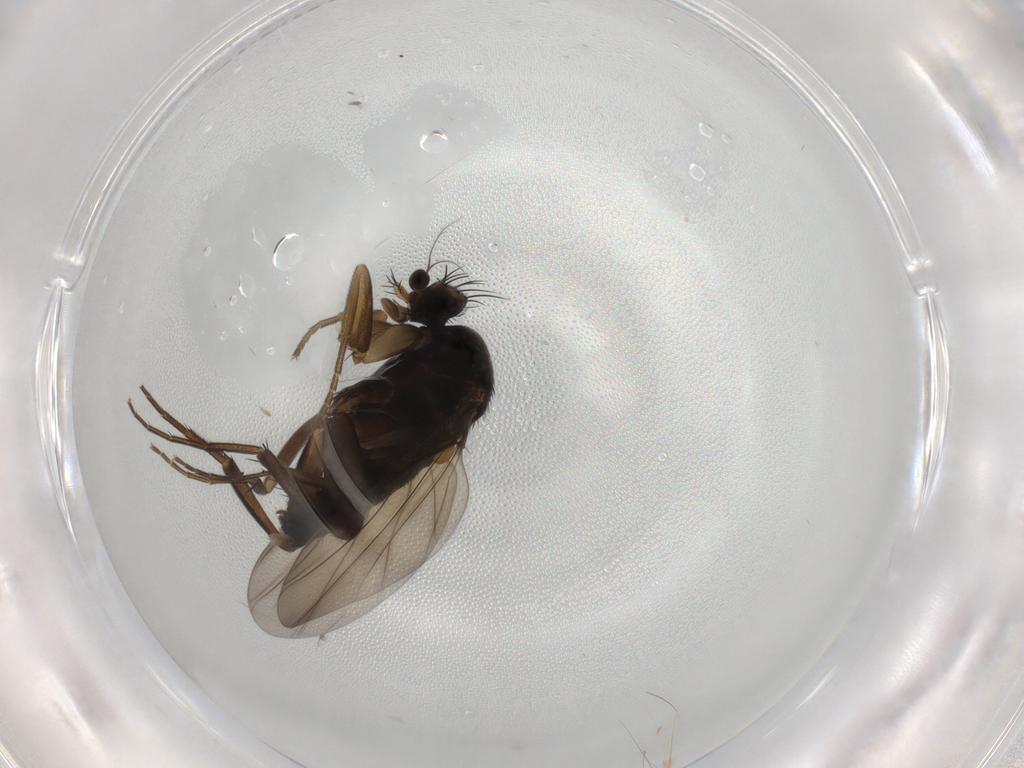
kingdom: Animalia
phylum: Arthropoda
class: Insecta
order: Diptera
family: Phoridae
